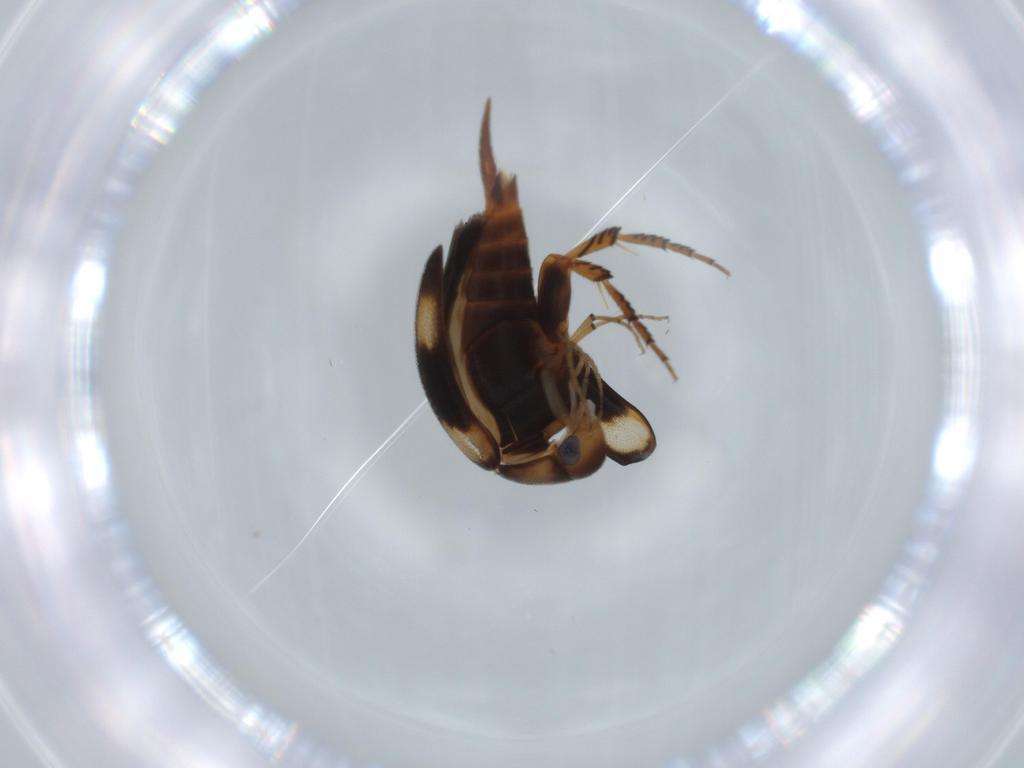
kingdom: Animalia
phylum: Arthropoda
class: Insecta
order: Coleoptera
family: Mordellidae
